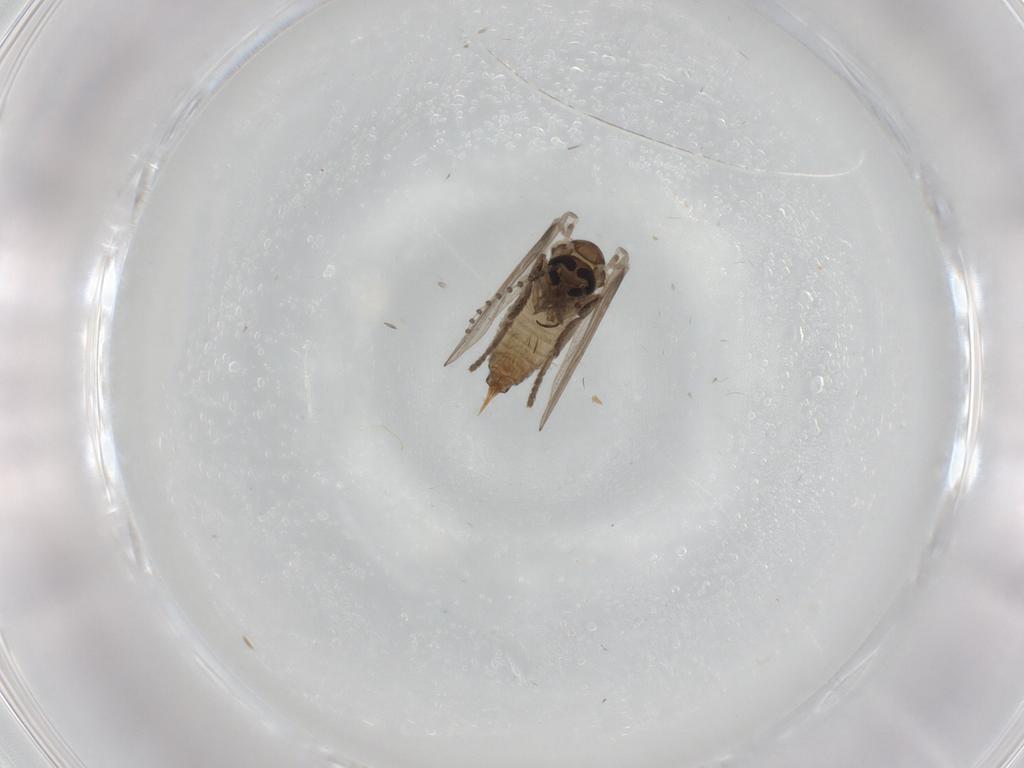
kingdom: Animalia
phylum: Arthropoda
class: Insecta
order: Diptera
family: Psychodidae
